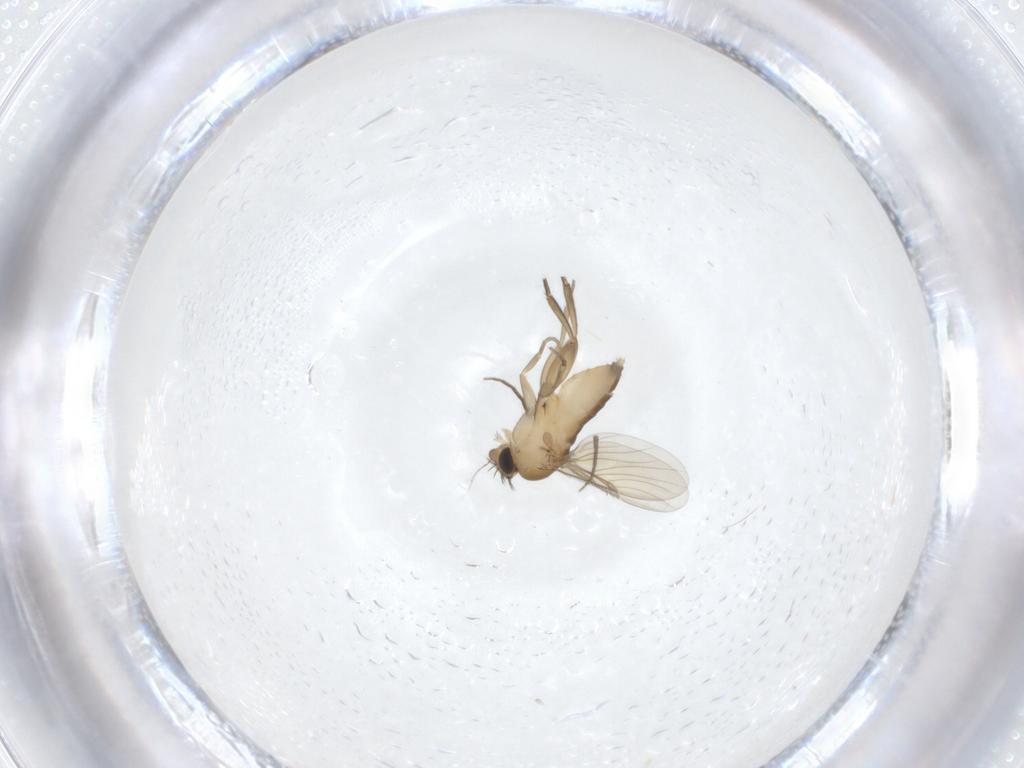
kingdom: Animalia
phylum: Arthropoda
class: Insecta
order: Diptera
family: Phoridae
